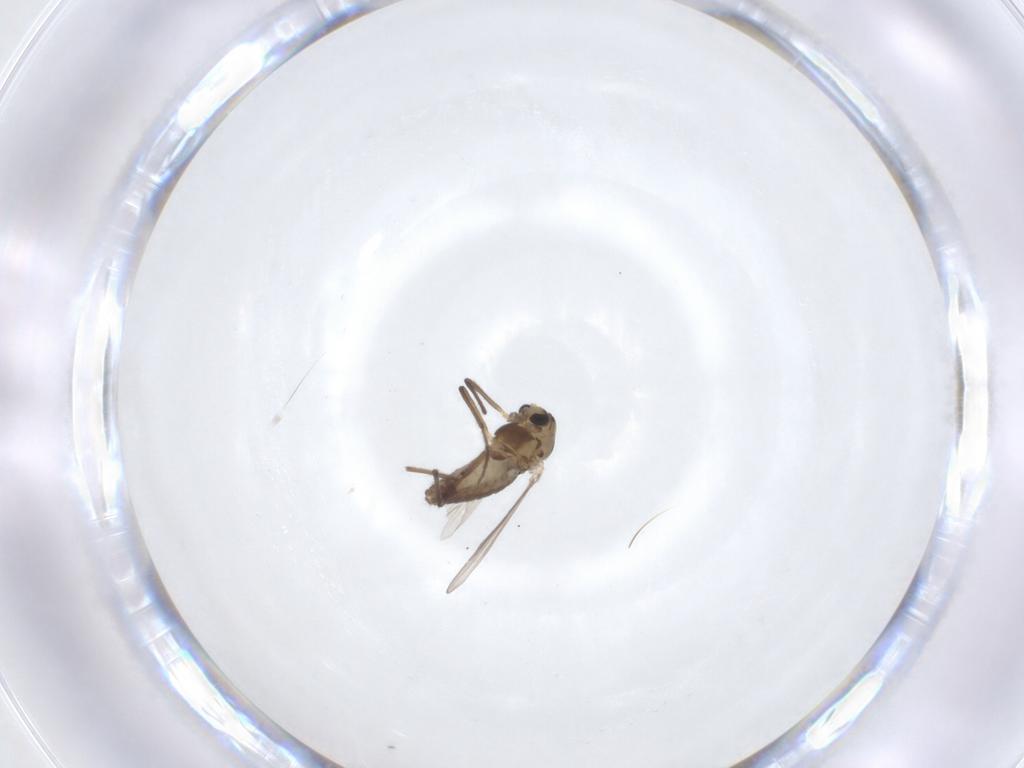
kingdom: Animalia
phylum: Arthropoda
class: Insecta
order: Diptera
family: Chironomidae
